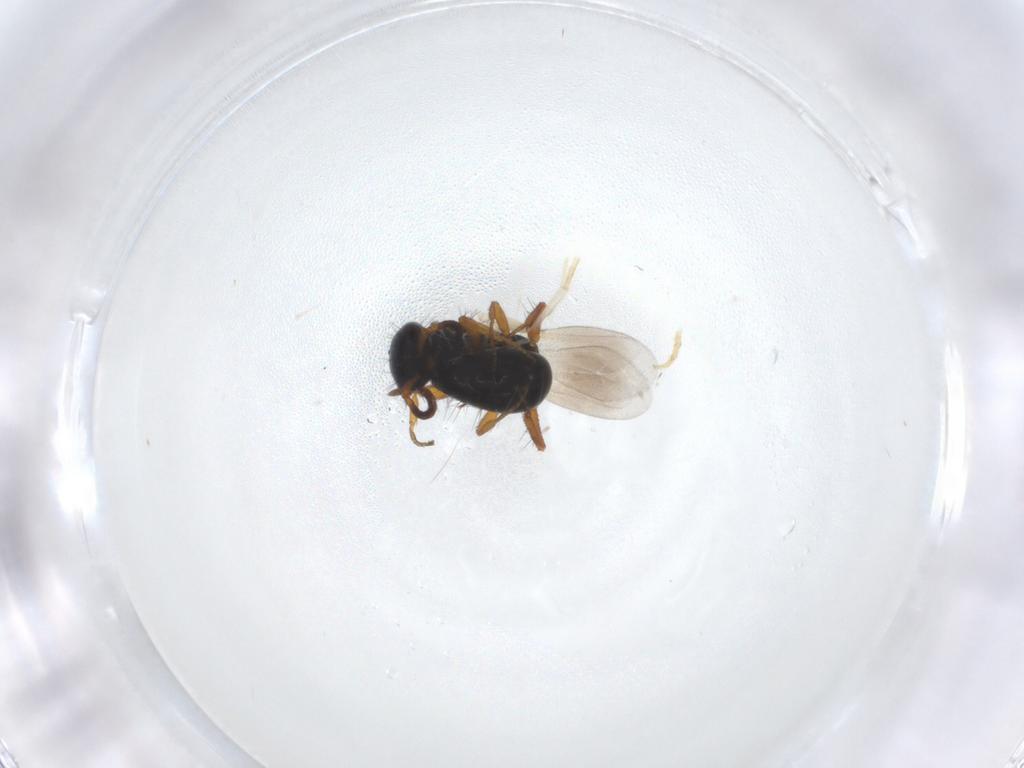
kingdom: Animalia
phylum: Arthropoda
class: Insecta
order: Hymenoptera
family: Bethylidae
